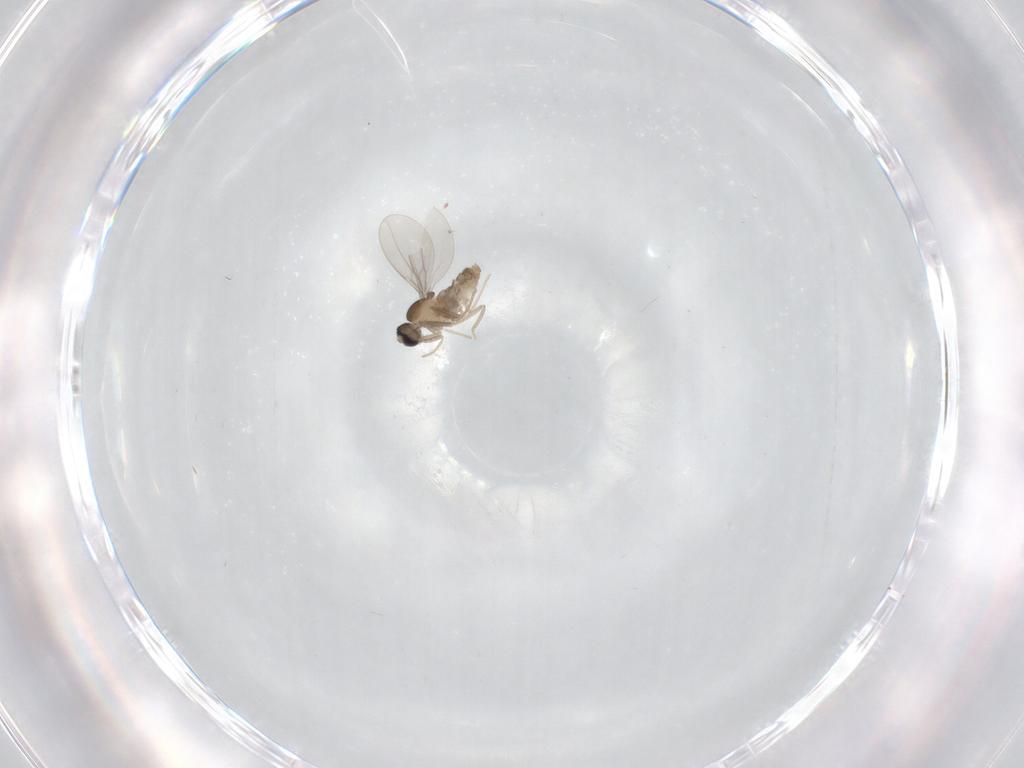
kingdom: Animalia
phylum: Arthropoda
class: Insecta
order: Diptera
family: Cecidomyiidae
